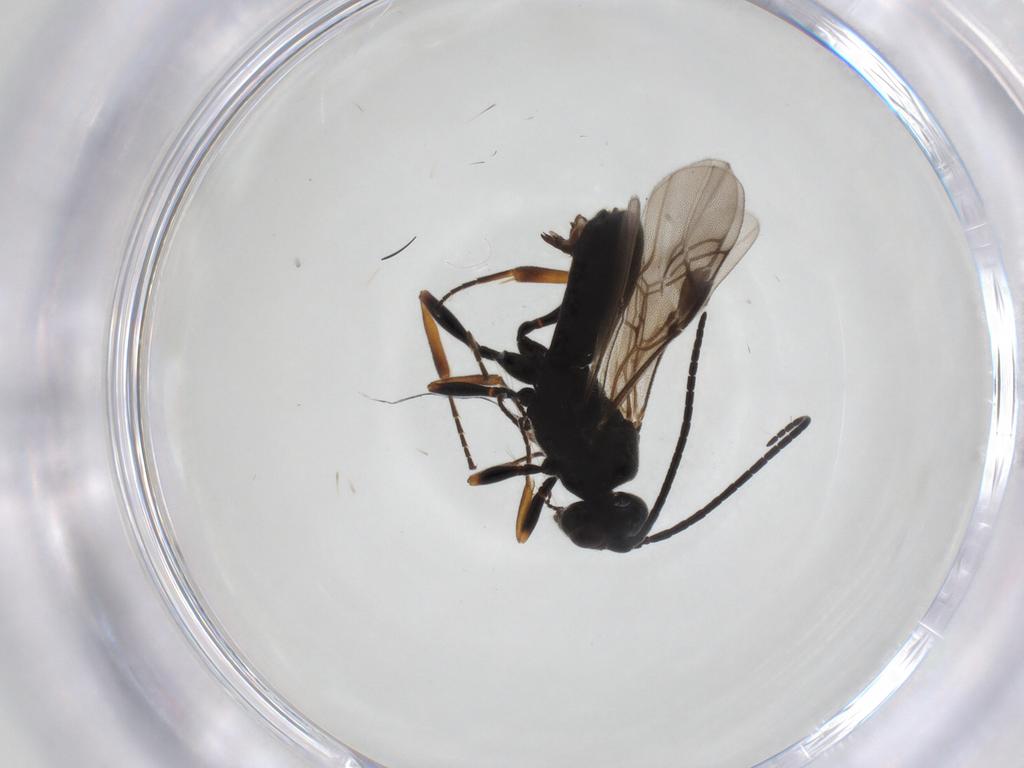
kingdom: Animalia
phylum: Arthropoda
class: Insecta
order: Hymenoptera
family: Braconidae
